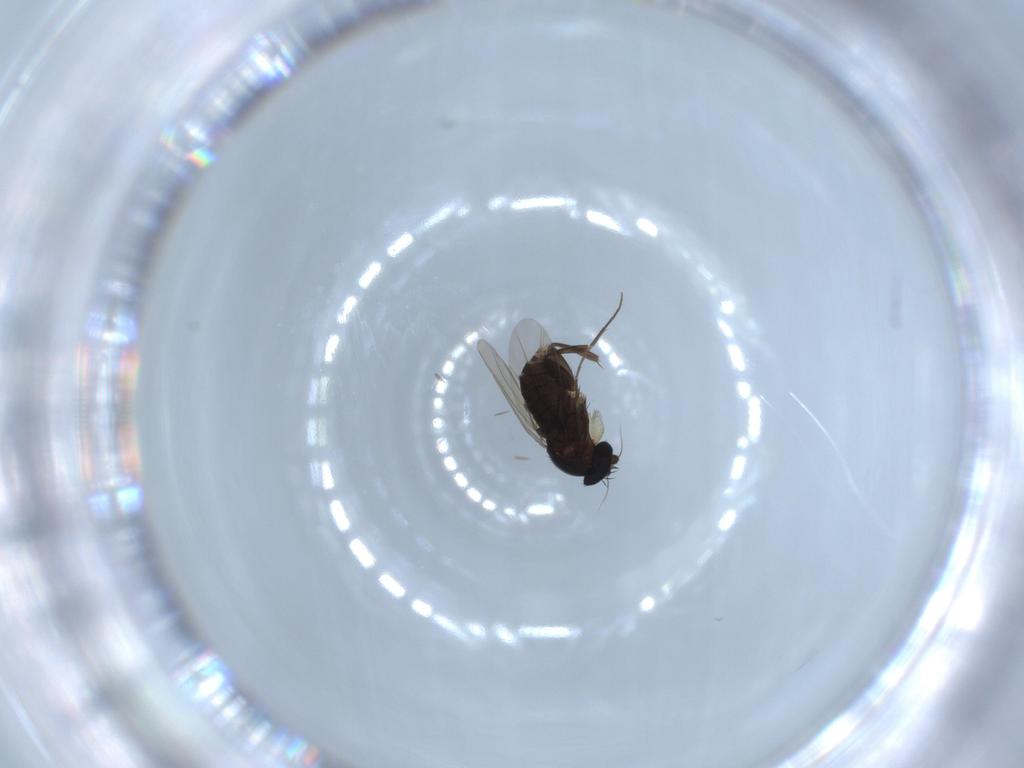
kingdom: Animalia
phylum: Arthropoda
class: Insecta
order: Diptera
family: Phoridae
